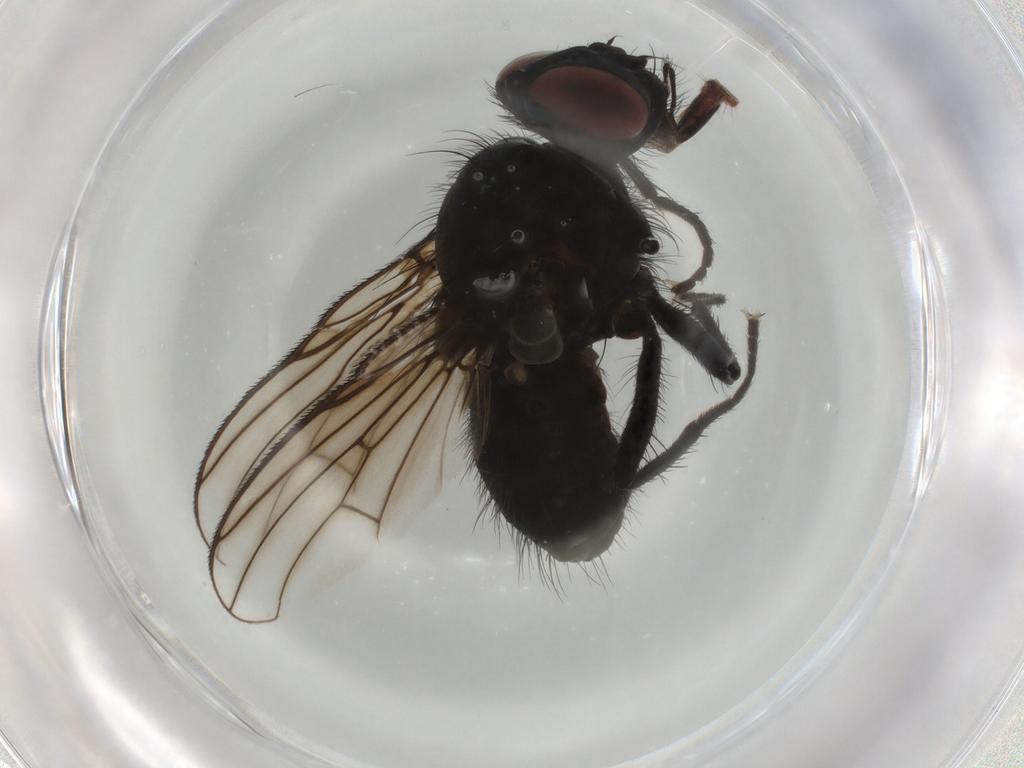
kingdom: Animalia
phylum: Arthropoda
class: Insecta
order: Diptera
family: Muscidae
